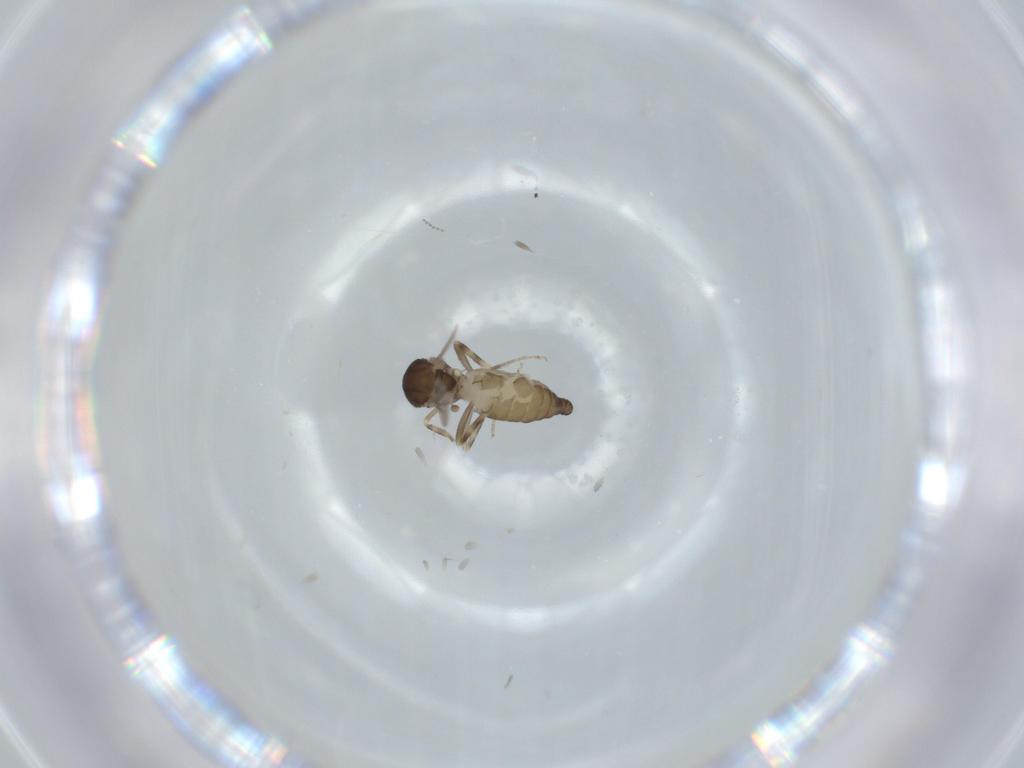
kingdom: Animalia
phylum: Arthropoda
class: Insecta
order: Diptera
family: Ceratopogonidae
